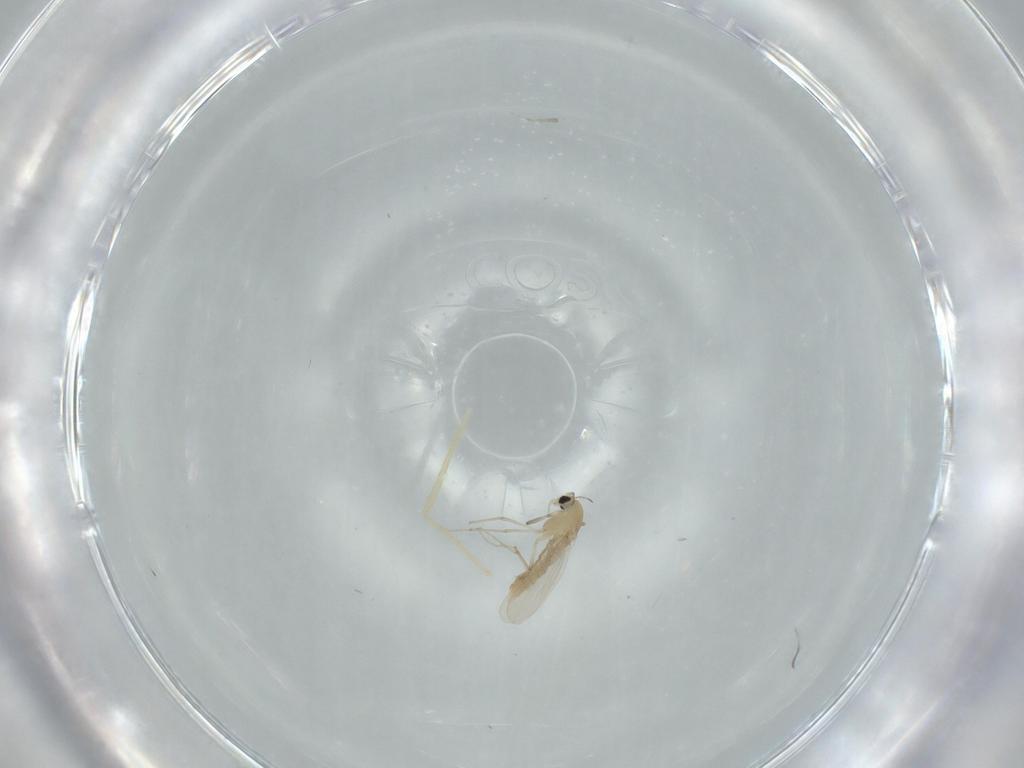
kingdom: Animalia
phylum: Arthropoda
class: Insecta
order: Diptera
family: Chironomidae
